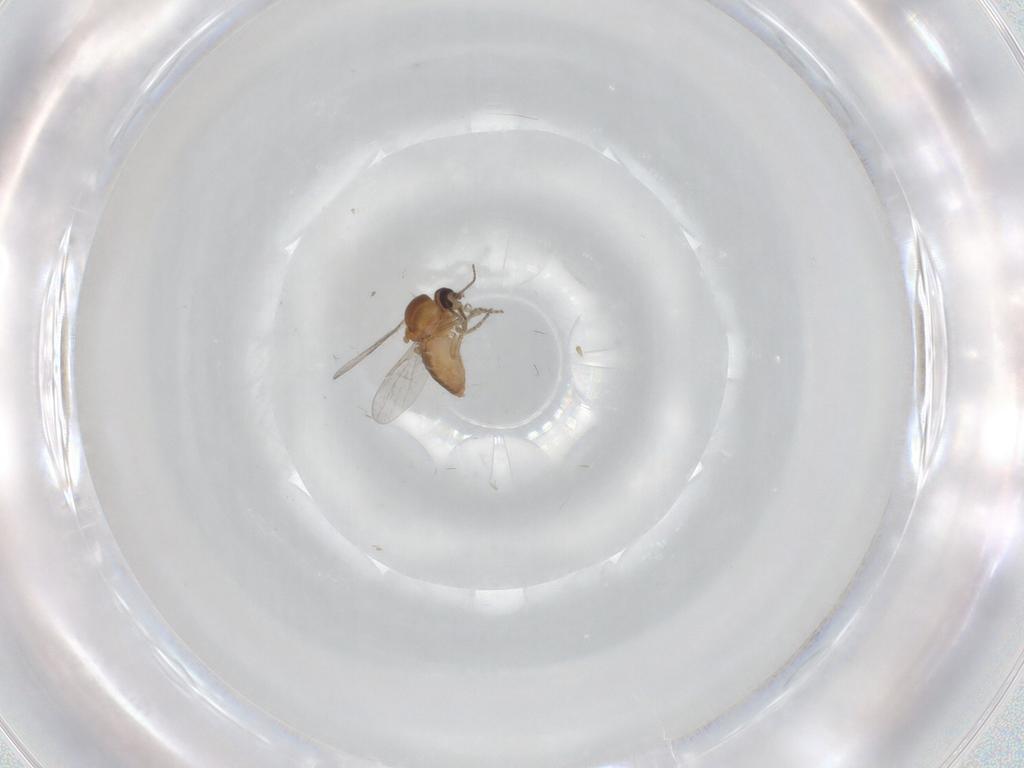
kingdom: Animalia
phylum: Arthropoda
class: Insecta
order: Diptera
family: Ceratopogonidae
